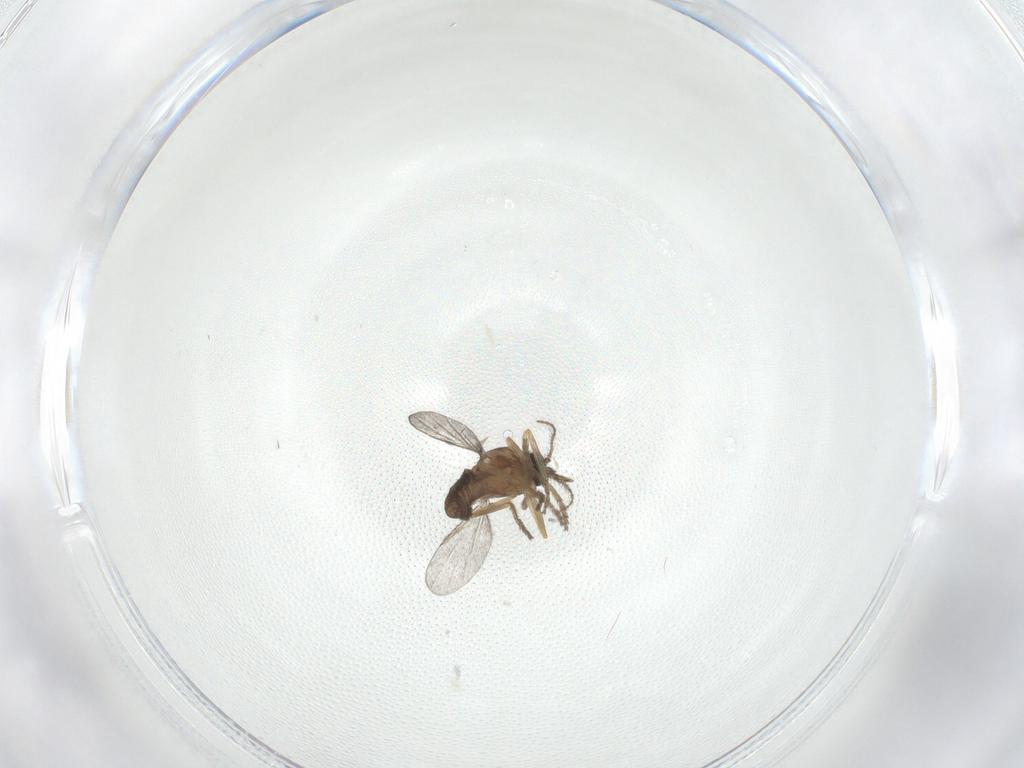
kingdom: Animalia
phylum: Arthropoda
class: Insecta
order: Diptera
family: Ceratopogonidae
